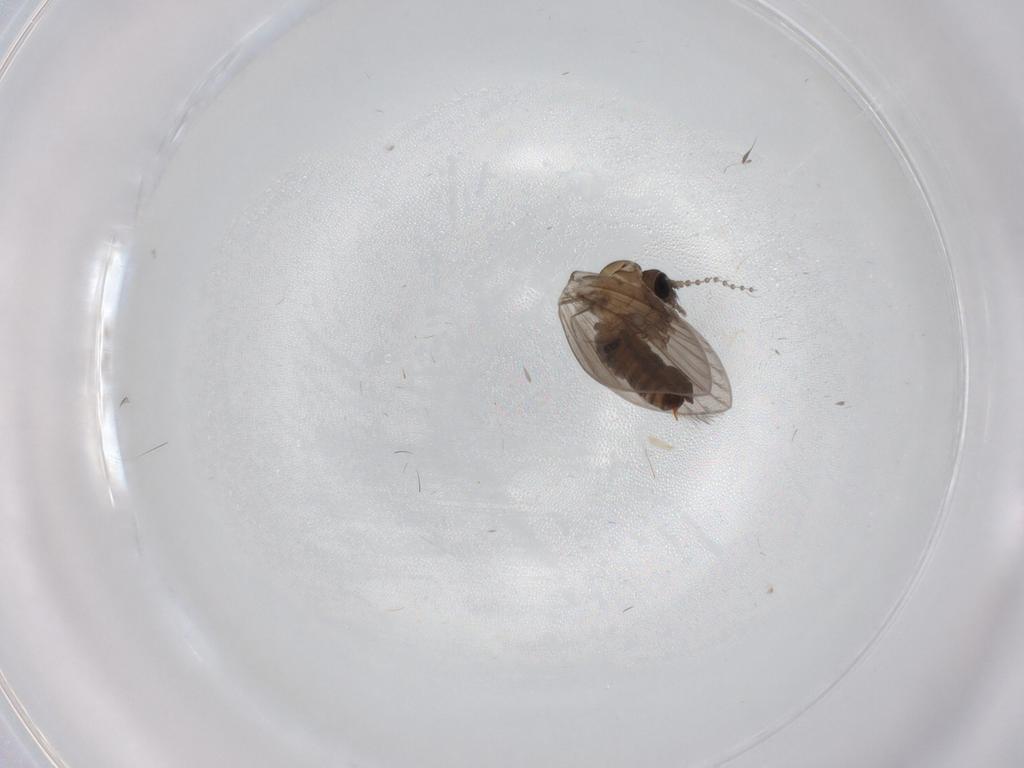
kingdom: Animalia
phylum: Arthropoda
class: Insecta
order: Diptera
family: Psychodidae
